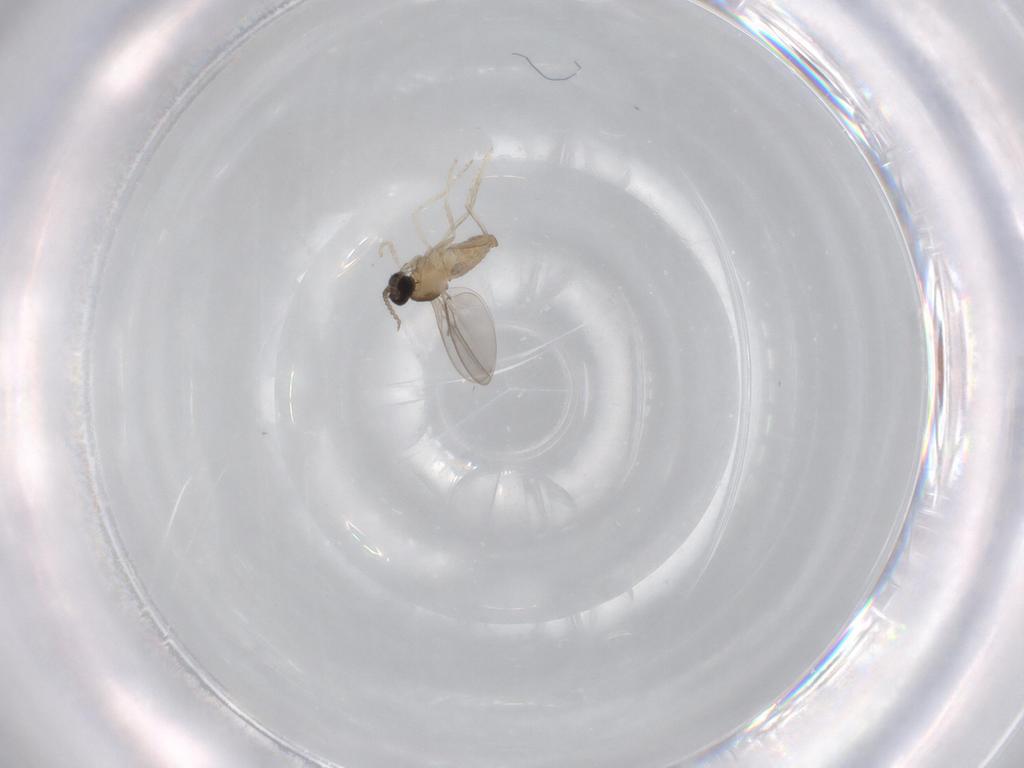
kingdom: Animalia
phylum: Arthropoda
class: Insecta
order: Diptera
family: Cecidomyiidae
